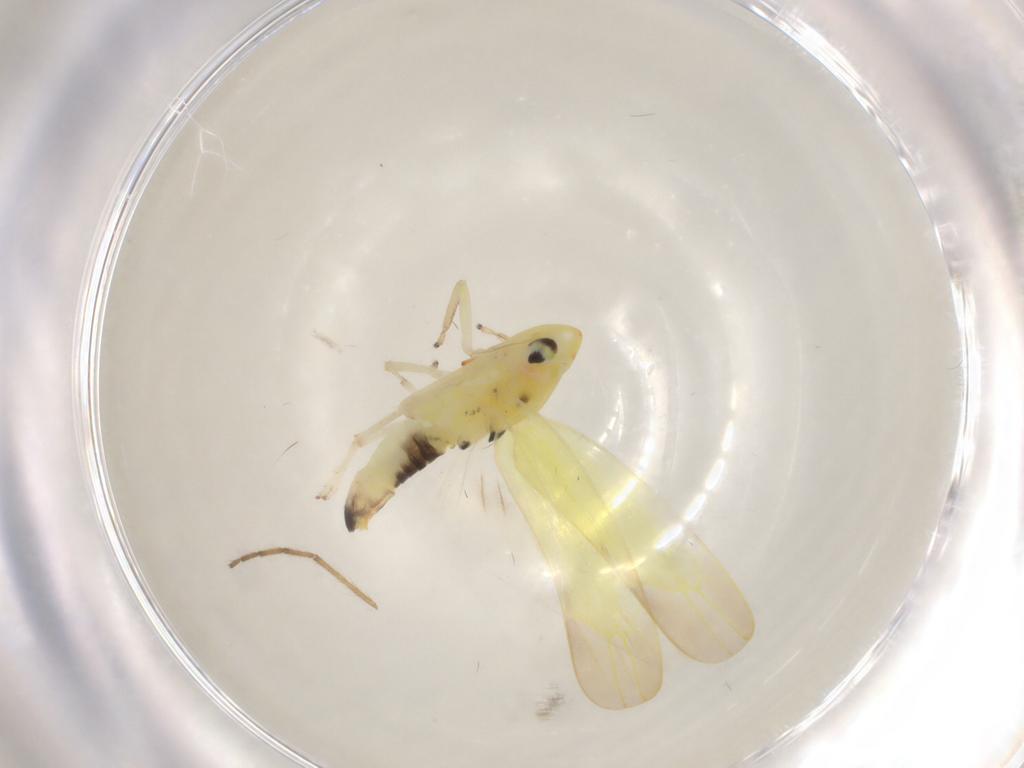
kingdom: Animalia
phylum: Arthropoda
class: Insecta
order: Hemiptera
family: Cicadellidae
